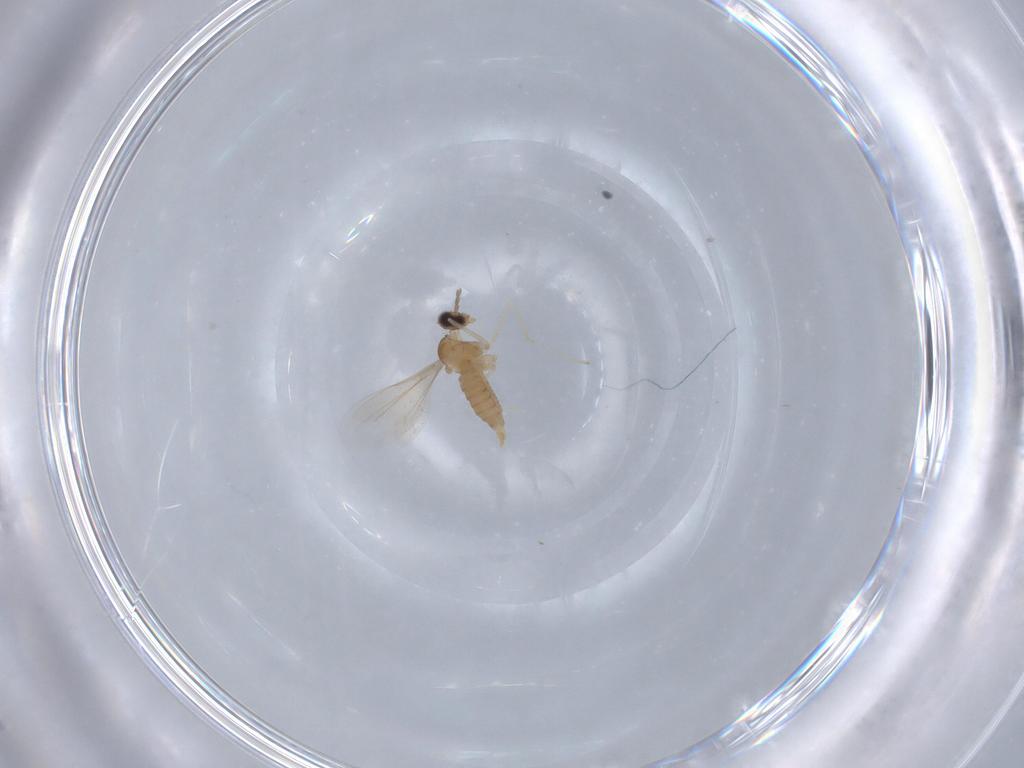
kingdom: Animalia
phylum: Arthropoda
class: Insecta
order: Diptera
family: Cecidomyiidae
